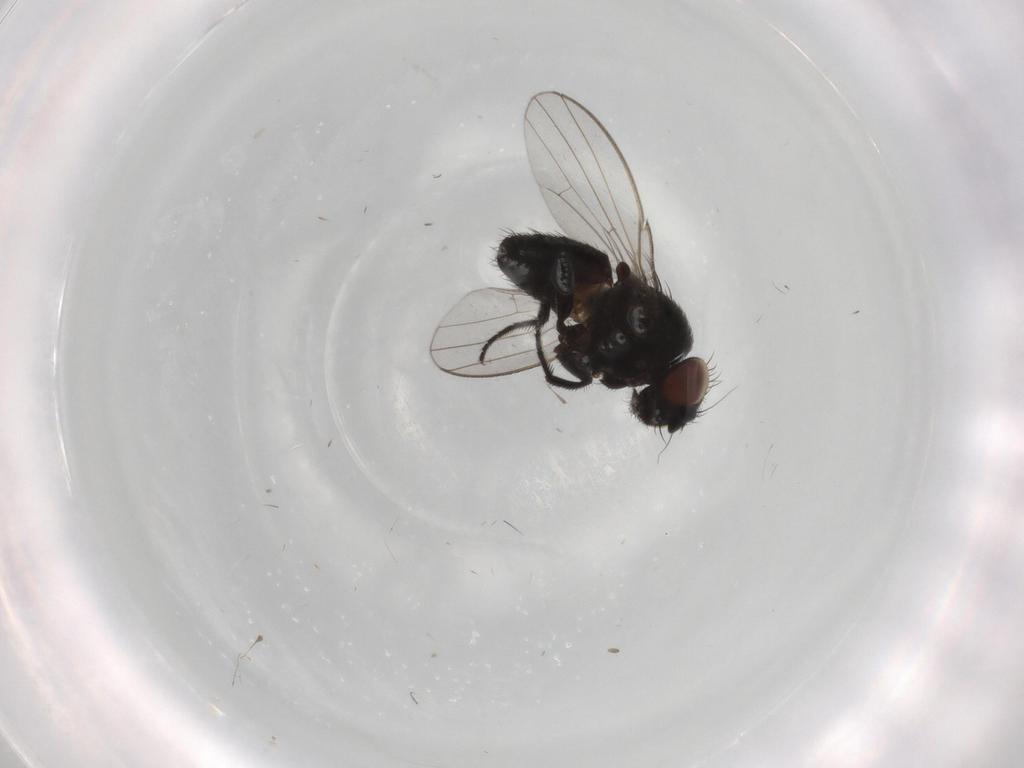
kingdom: Animalia
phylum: Arthropoda
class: Insecta
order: Diptera
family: Milichiidae
